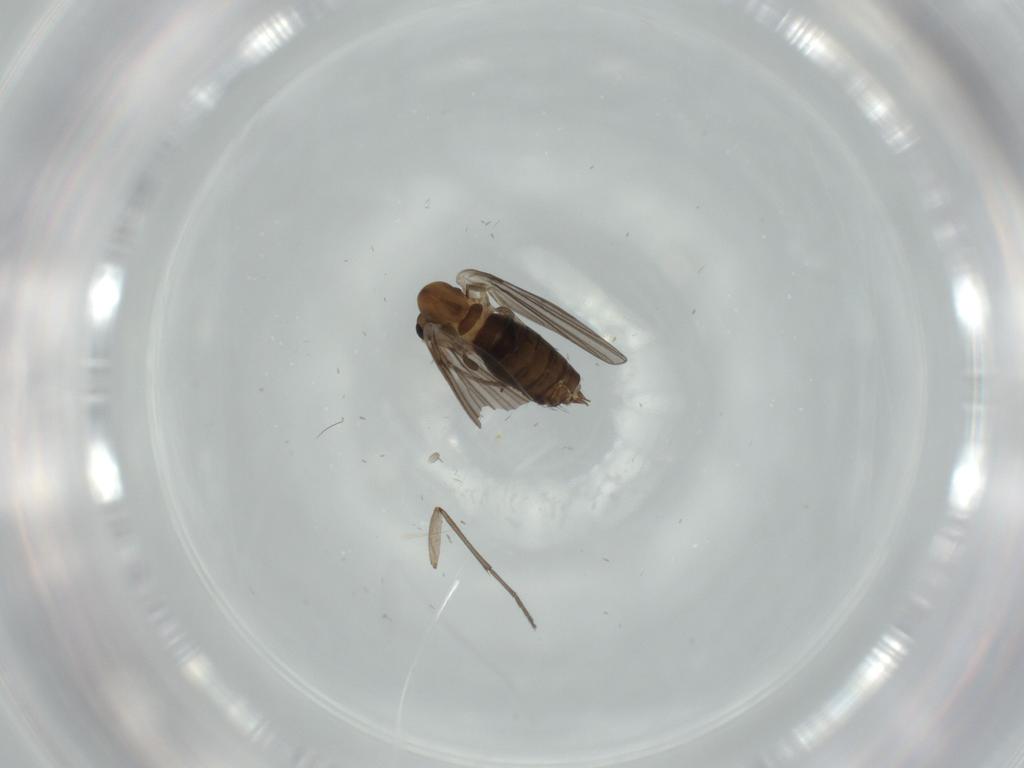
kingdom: Animalia
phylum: Arthropoda
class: Insecta
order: Diptera
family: Psychodidae
